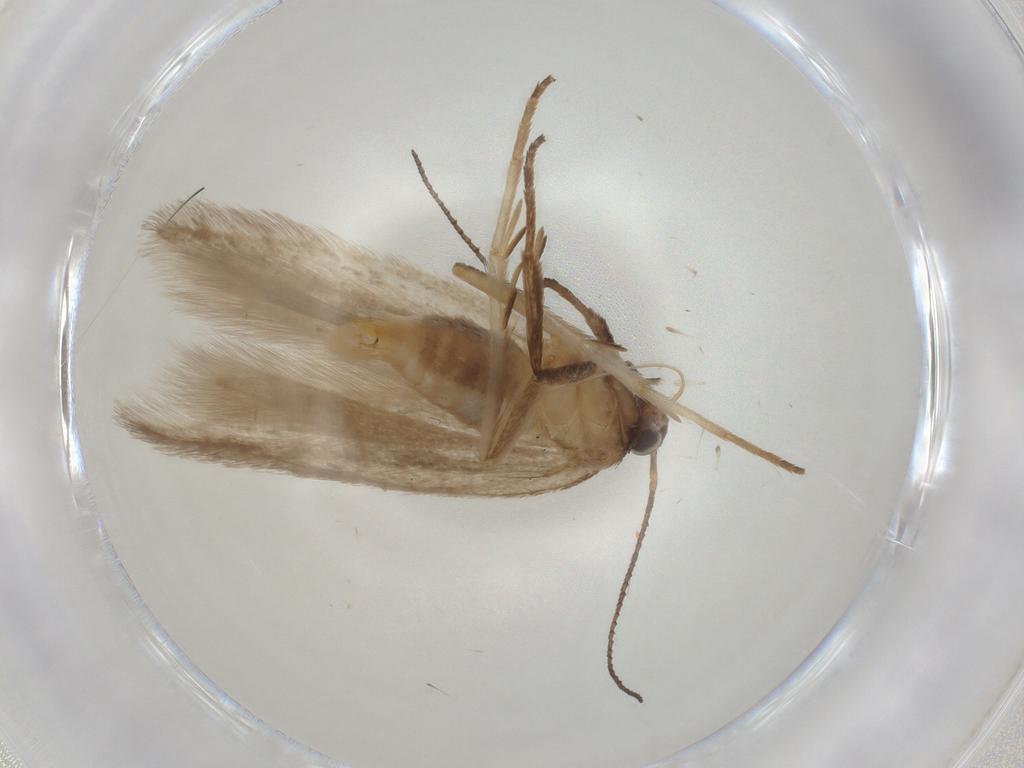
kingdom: Animalia
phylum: Arthropoda
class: Insecta
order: Lepidoptera
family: Gelechiidae
